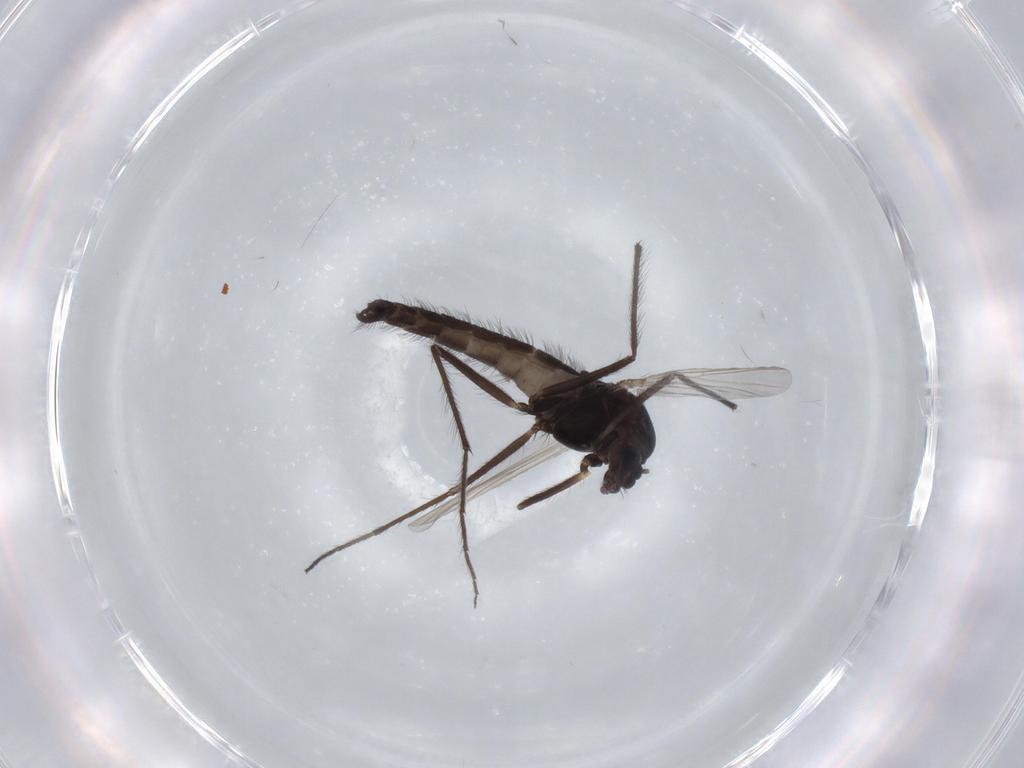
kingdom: Animalia
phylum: Arthropoda
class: Insecta
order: Diptera
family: Chironomidae
